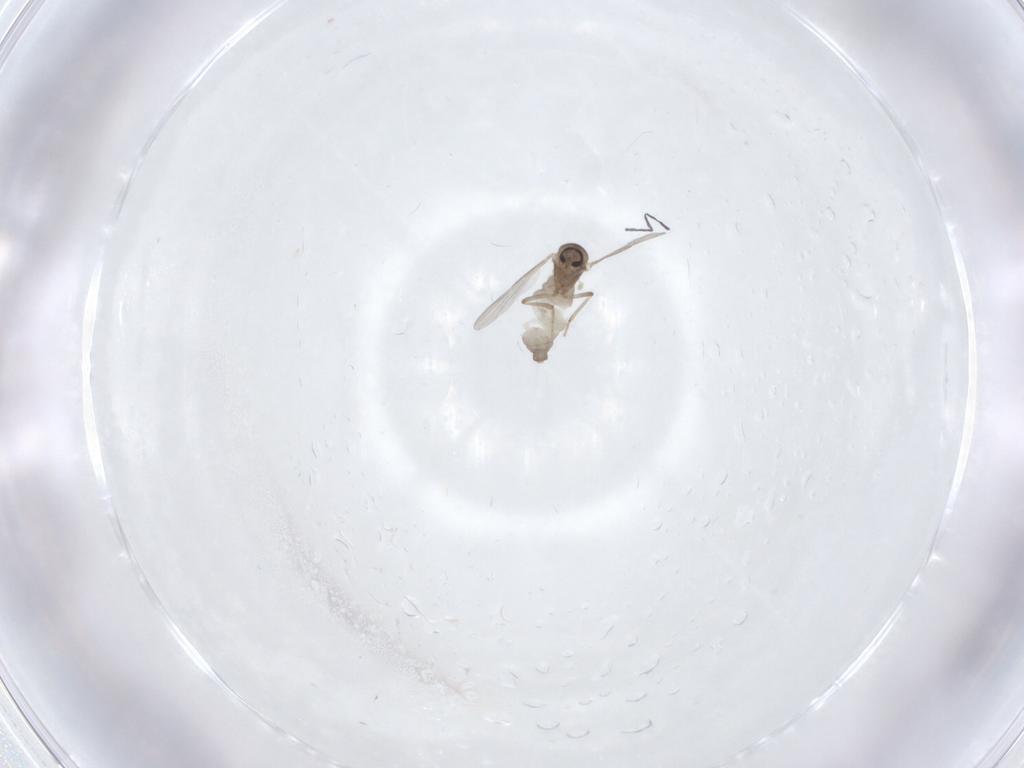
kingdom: Animalia
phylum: Arthropoda
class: Insecta
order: Diptera
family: Ceratopogonidae
